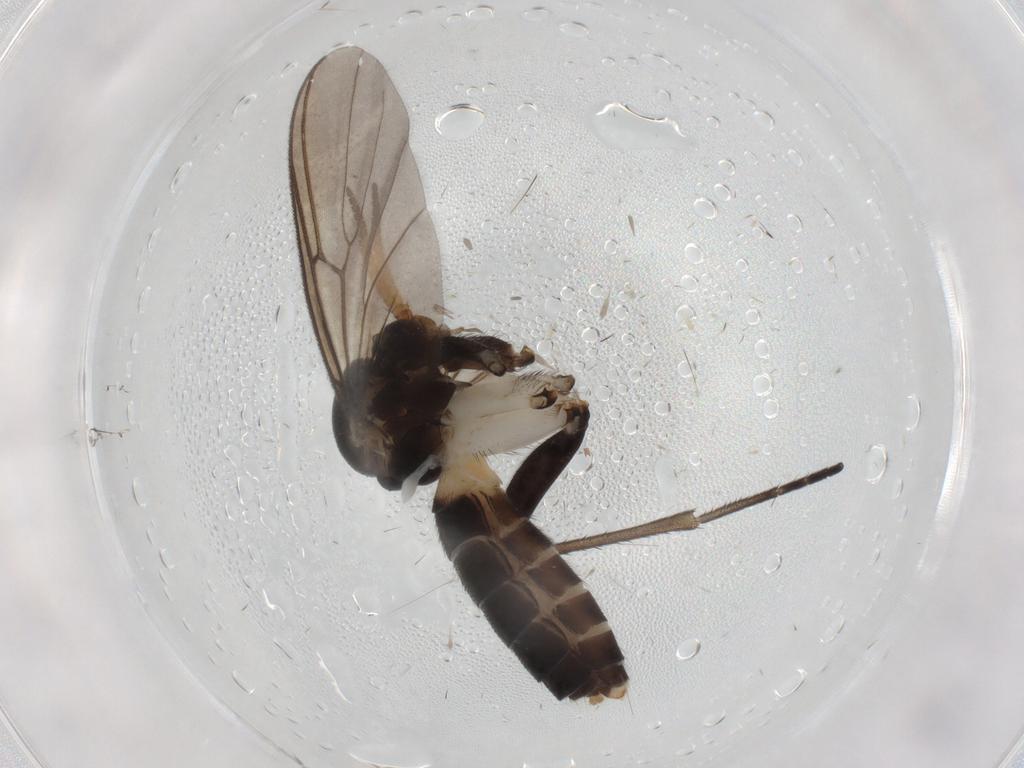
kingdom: Animalia
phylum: Arthropoda
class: Insecta
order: Diptera
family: Mycetophilidae
